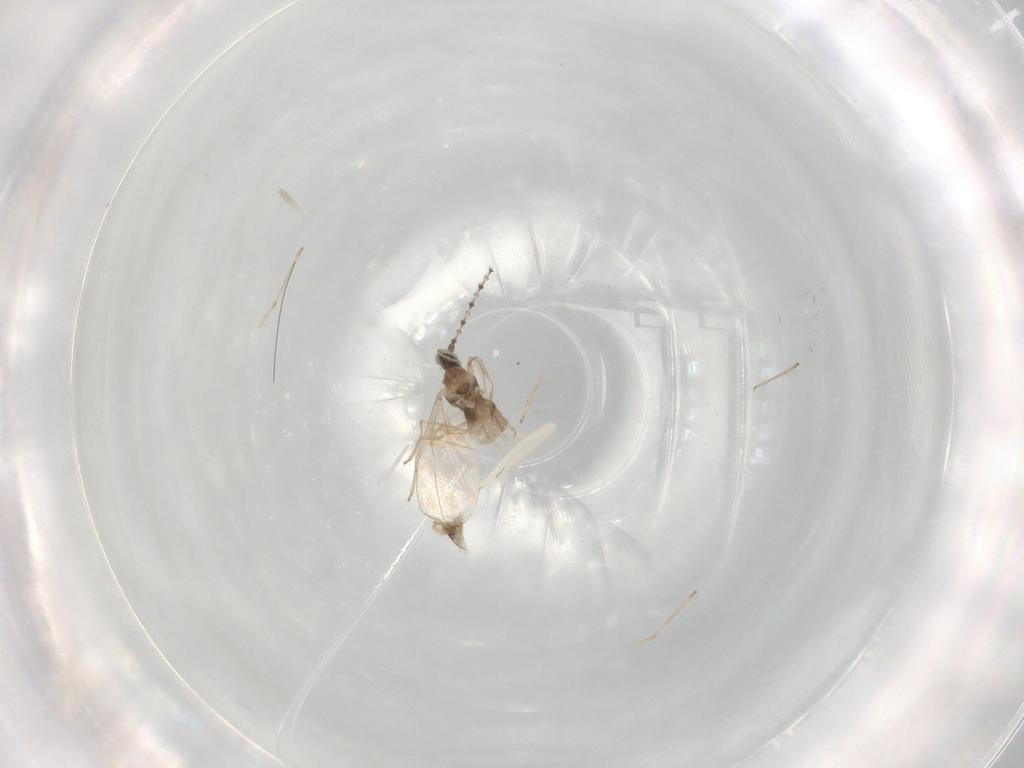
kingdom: Animalia
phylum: Arthropoda
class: Insecta
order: Diptera
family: Cecidomyiidae
